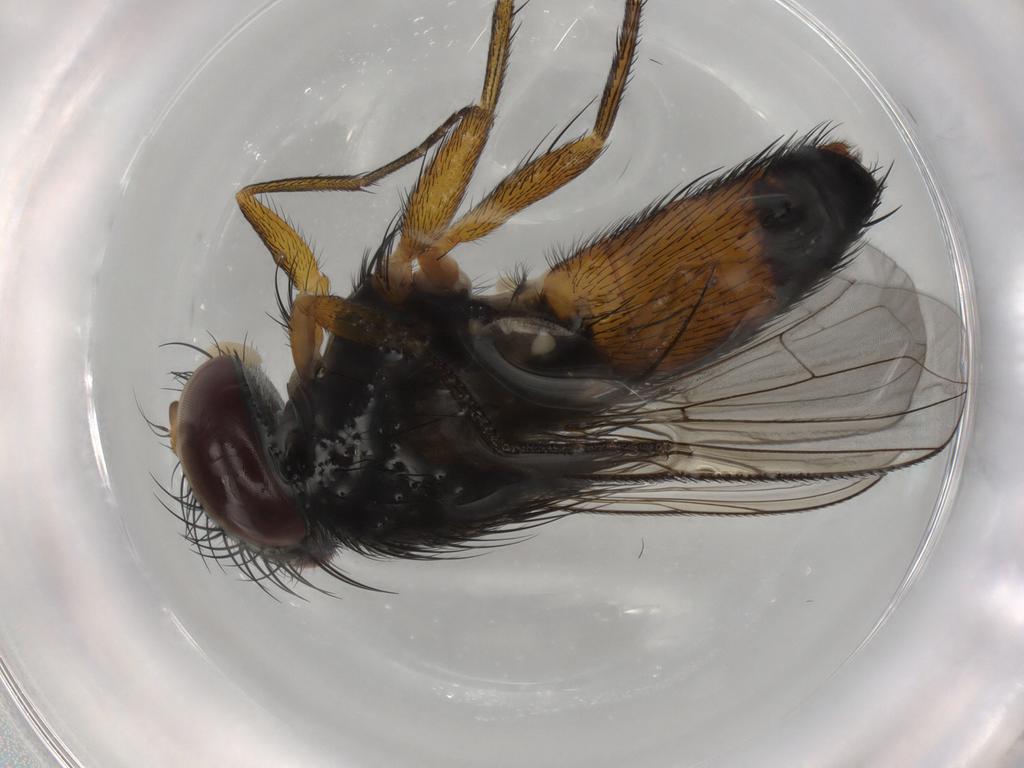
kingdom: Animalia
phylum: Arthropoda
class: Insecta
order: Diptera
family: Tachinidae
